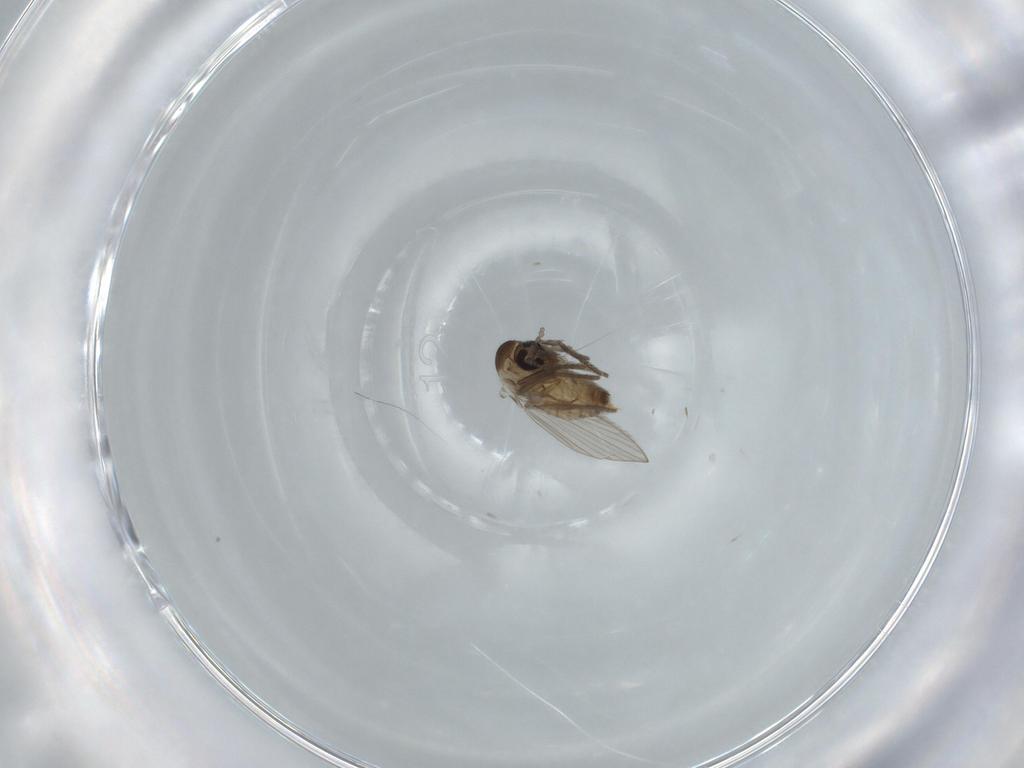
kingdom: Animalia
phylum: Arthropoda
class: Insecta
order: Diptera
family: Psychodidae
